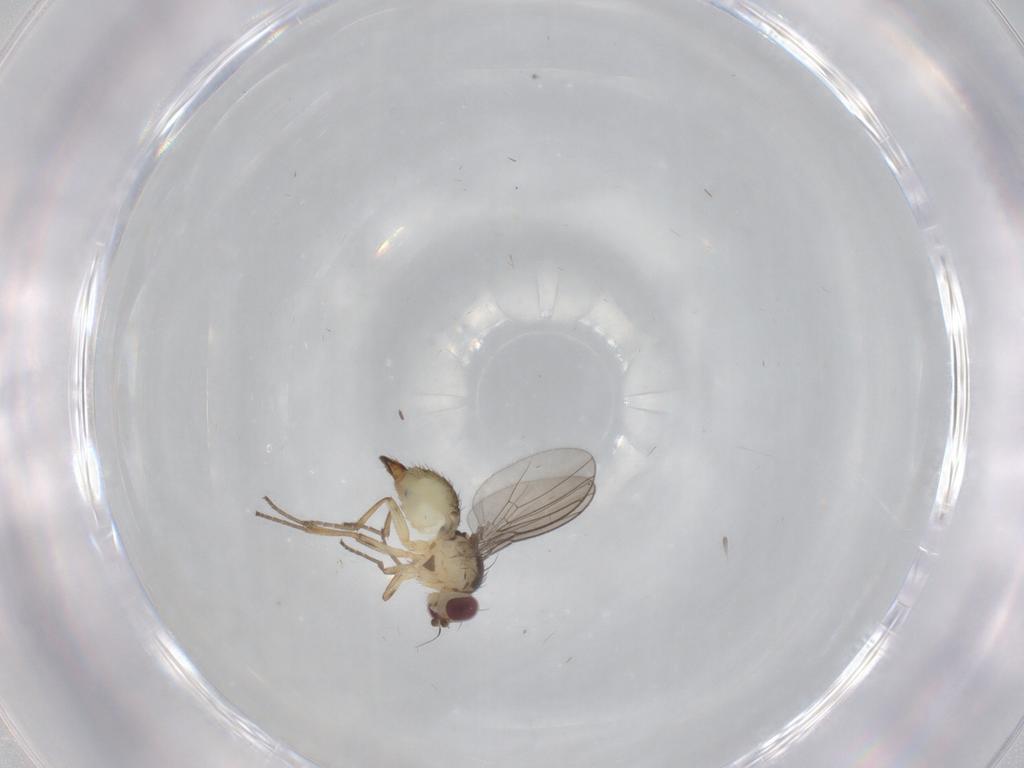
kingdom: Animalia
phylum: Arthropoda
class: Insecta
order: Diptera
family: Agromyzidae
